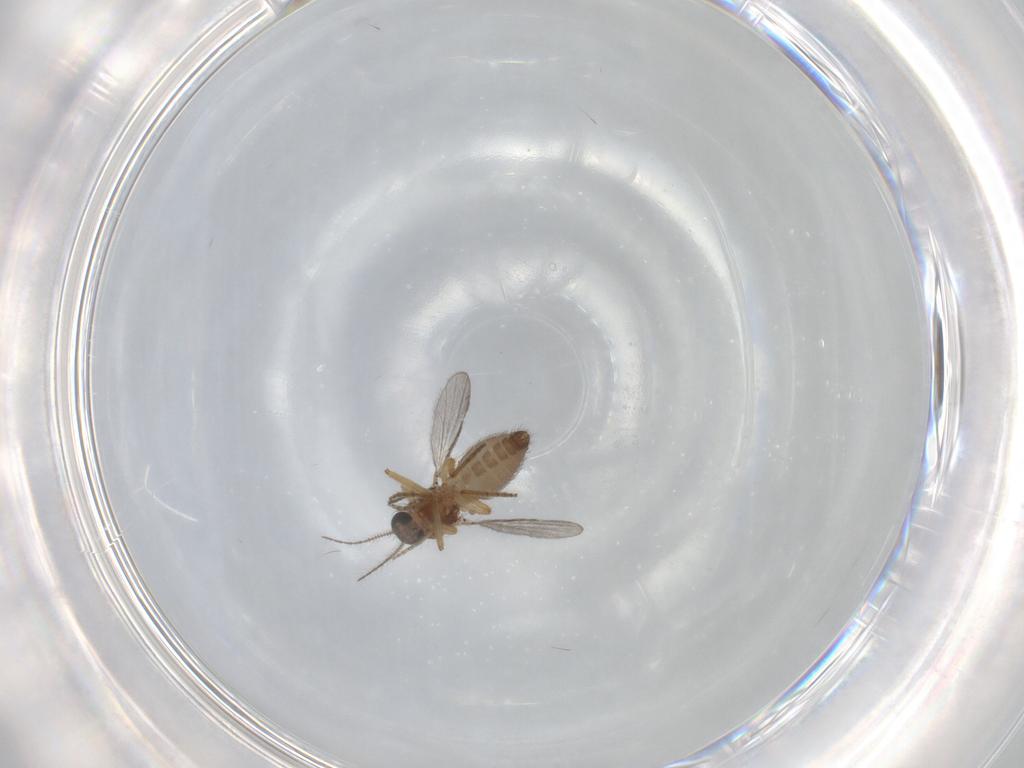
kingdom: Animalia
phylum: Arthropoda
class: Insecta
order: Diptera
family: Ceratopogonidae
